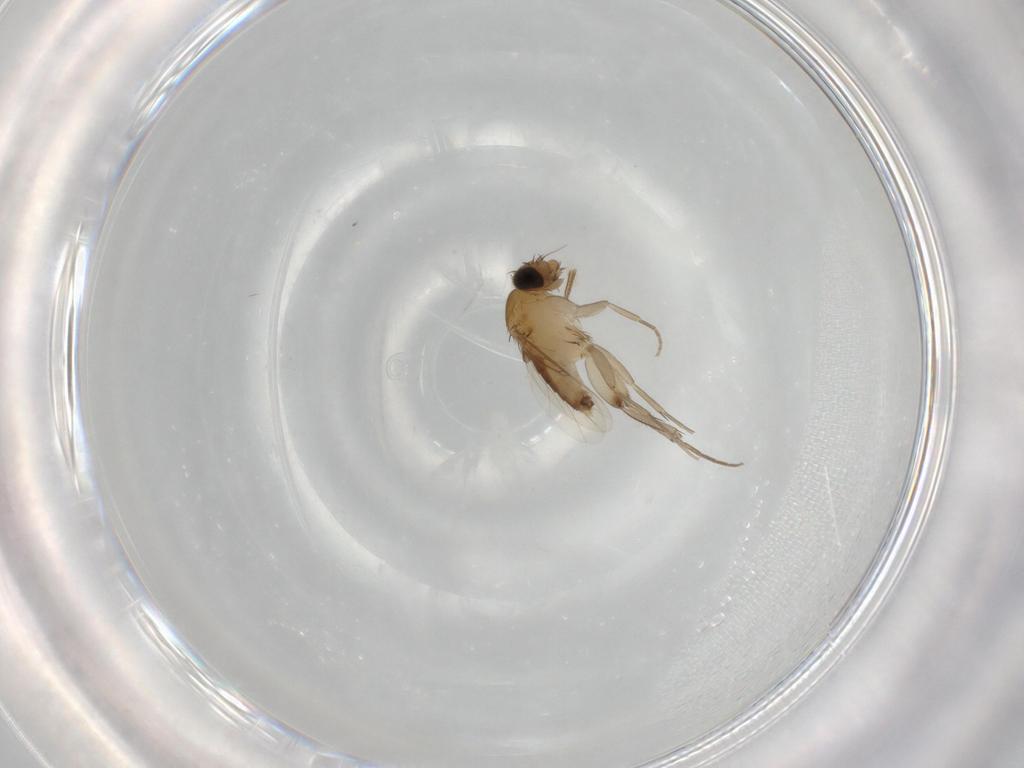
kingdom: Animalia
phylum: Arthropoda
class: Insecta
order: Diptera
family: Phoridae
